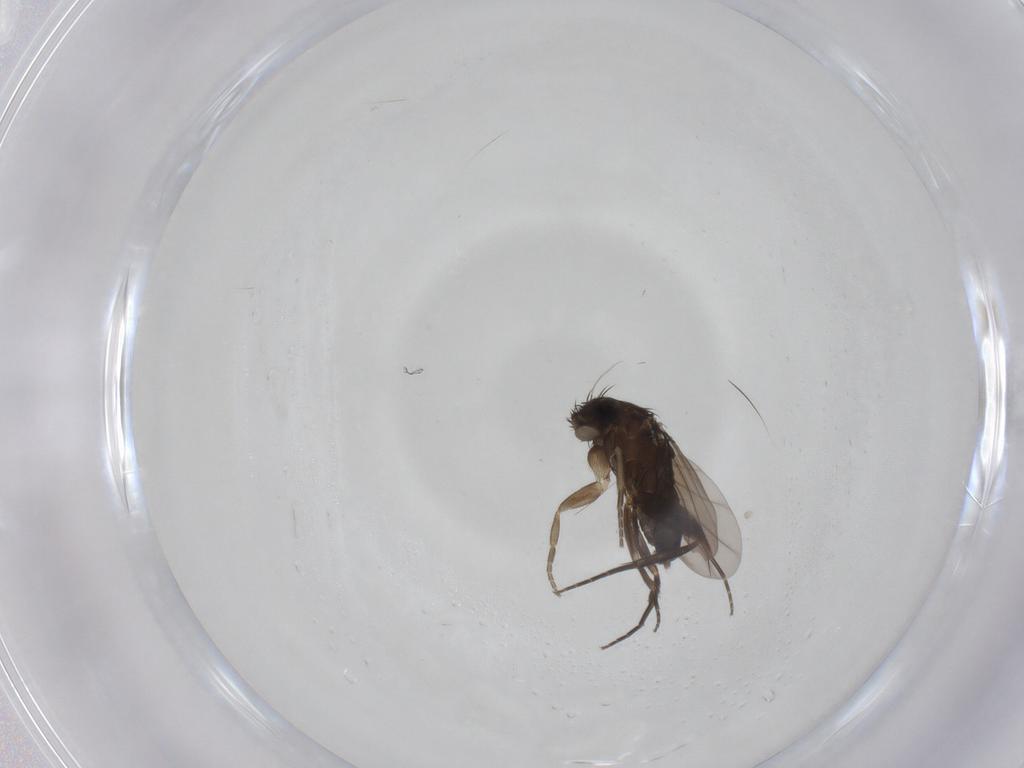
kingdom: Animalia
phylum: Arthropoda
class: Insecta
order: Diptera
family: Phoridae
